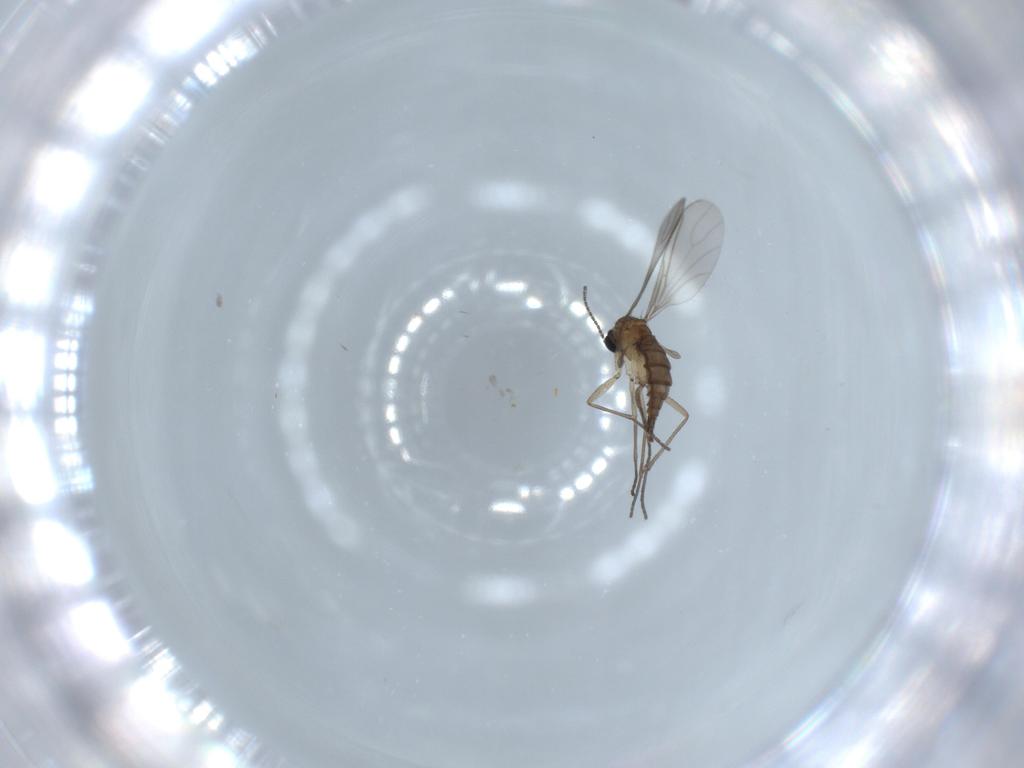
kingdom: Animalia
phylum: Arthropoda
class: Insecta
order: Diptera
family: Sciaridae
